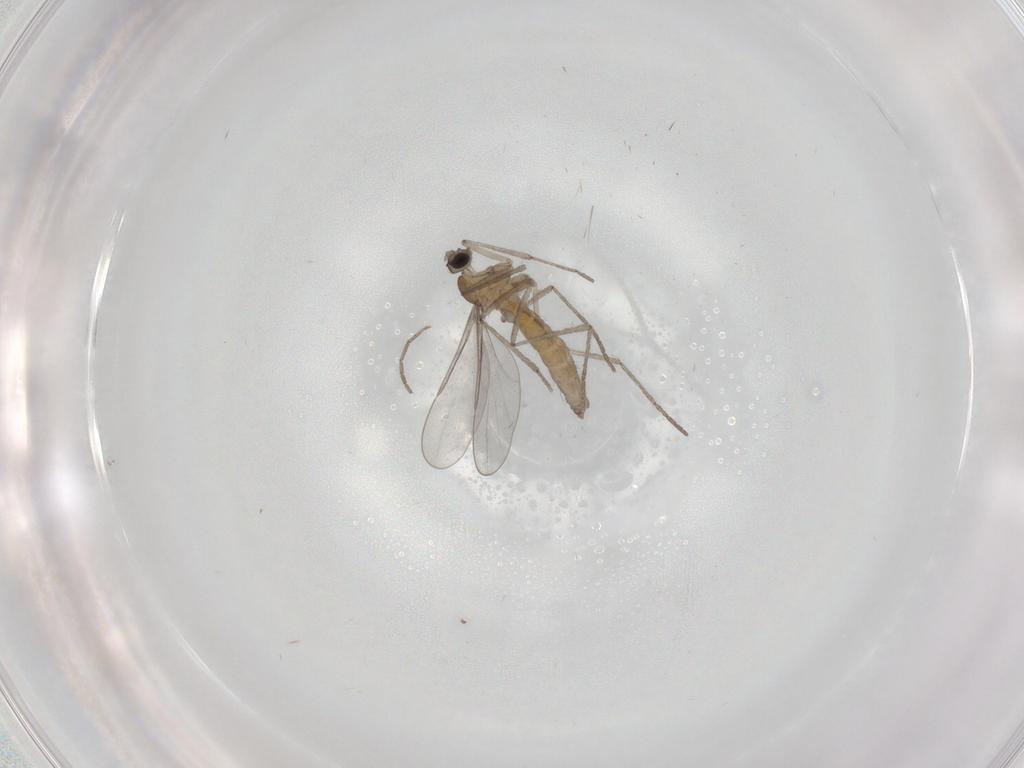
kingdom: Animalia
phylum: Arthropoda
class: Insecta
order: Diptera
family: Cecidomyiidae
